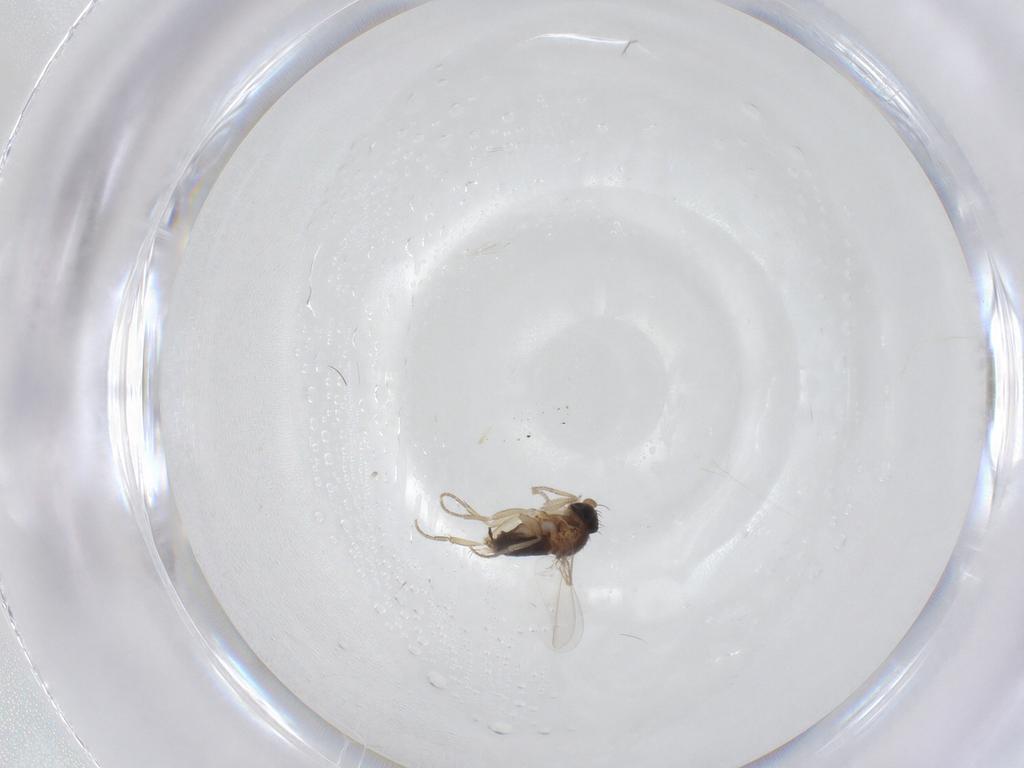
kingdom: Animalia
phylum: Arthropoda
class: Insecta
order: Diptera
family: Phoridae
